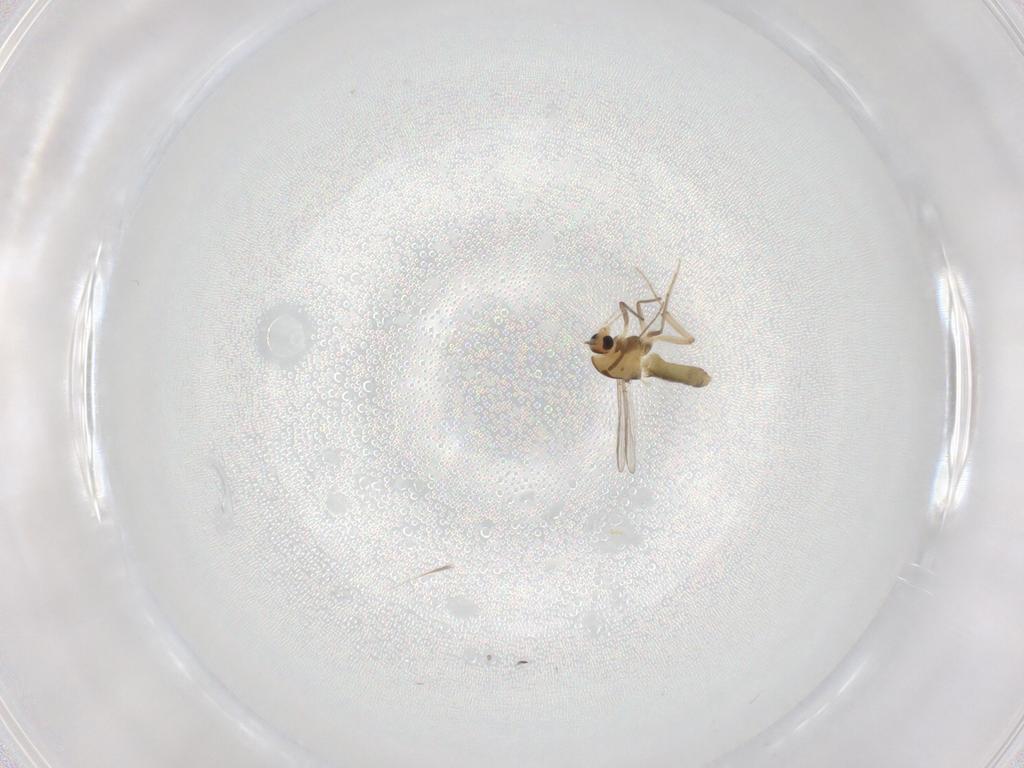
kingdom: Animalia
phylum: Arthropoda
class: Insecta
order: Diptera
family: Chironomidae
